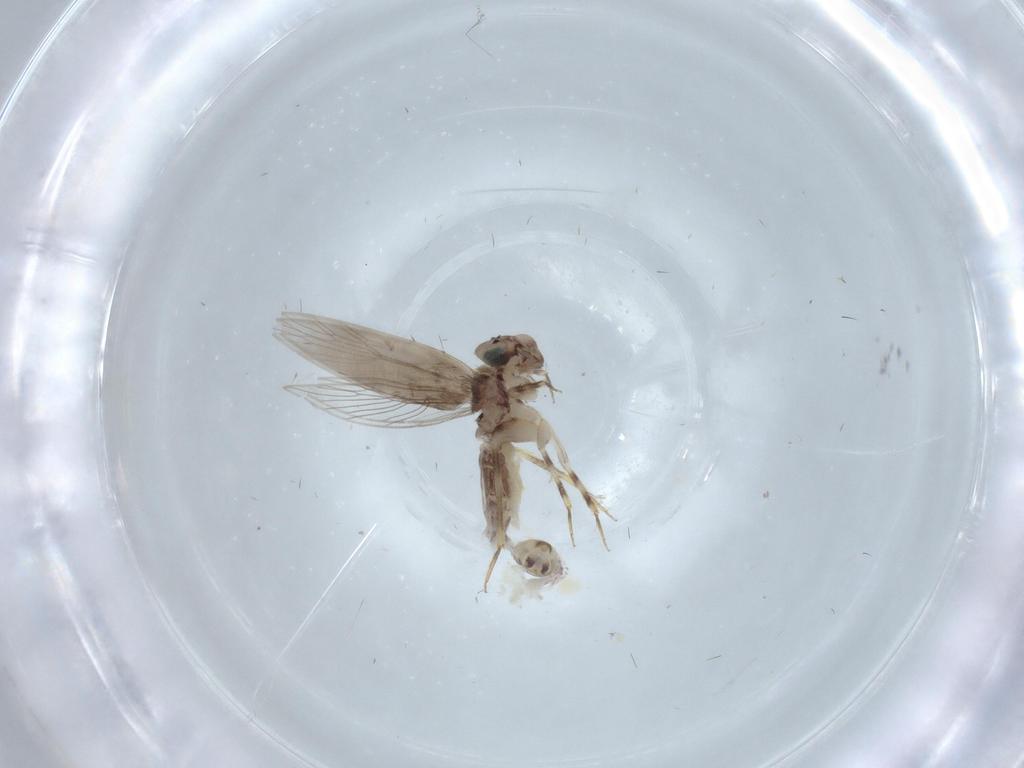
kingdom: Animalia
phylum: Arthropoda
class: Insecta
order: Psocodea
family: Lepidopsocidae
